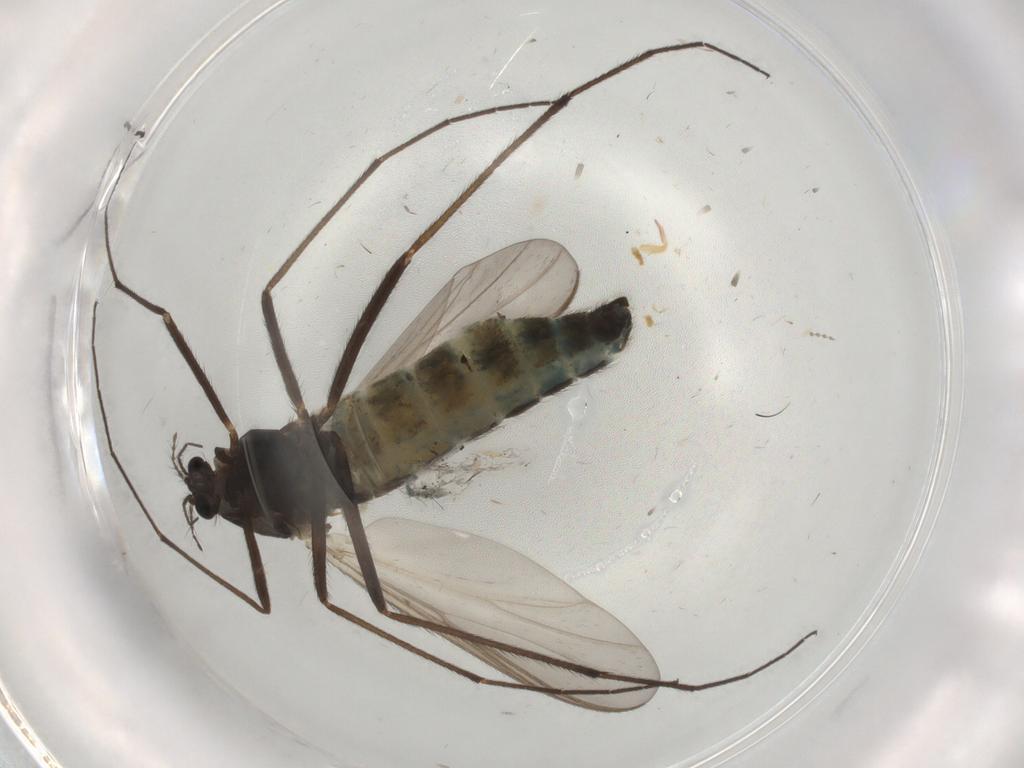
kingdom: Animalia
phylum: Arthropoda
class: Insecta
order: Diptera
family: Chironomidae
